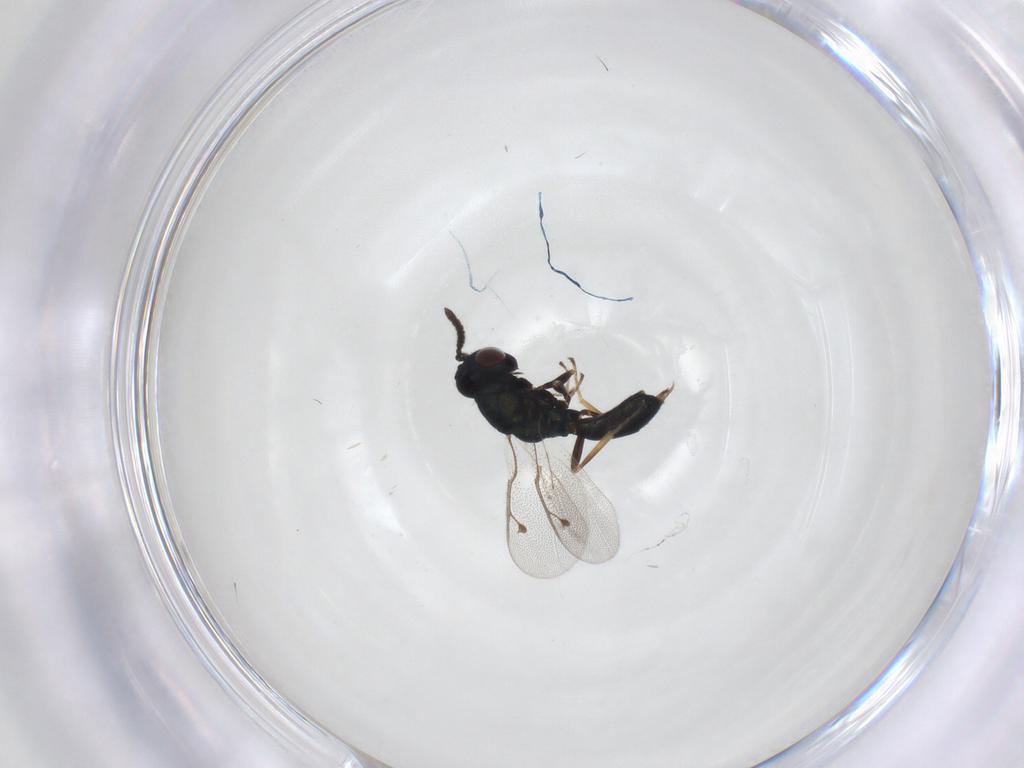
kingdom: Animalia
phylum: Arthropoda
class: Insecta
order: Hymenoptera
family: Pteromalidae
